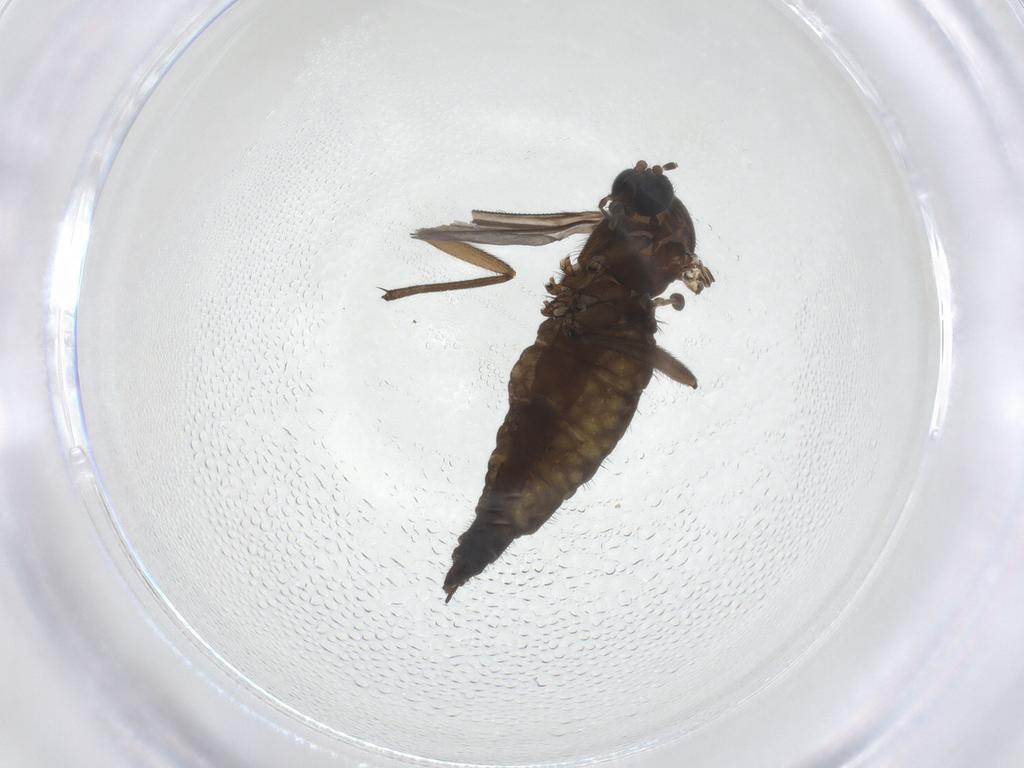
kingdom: Animalia
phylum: Arthropoda
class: Insecta
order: Diptera
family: Sciaridae
